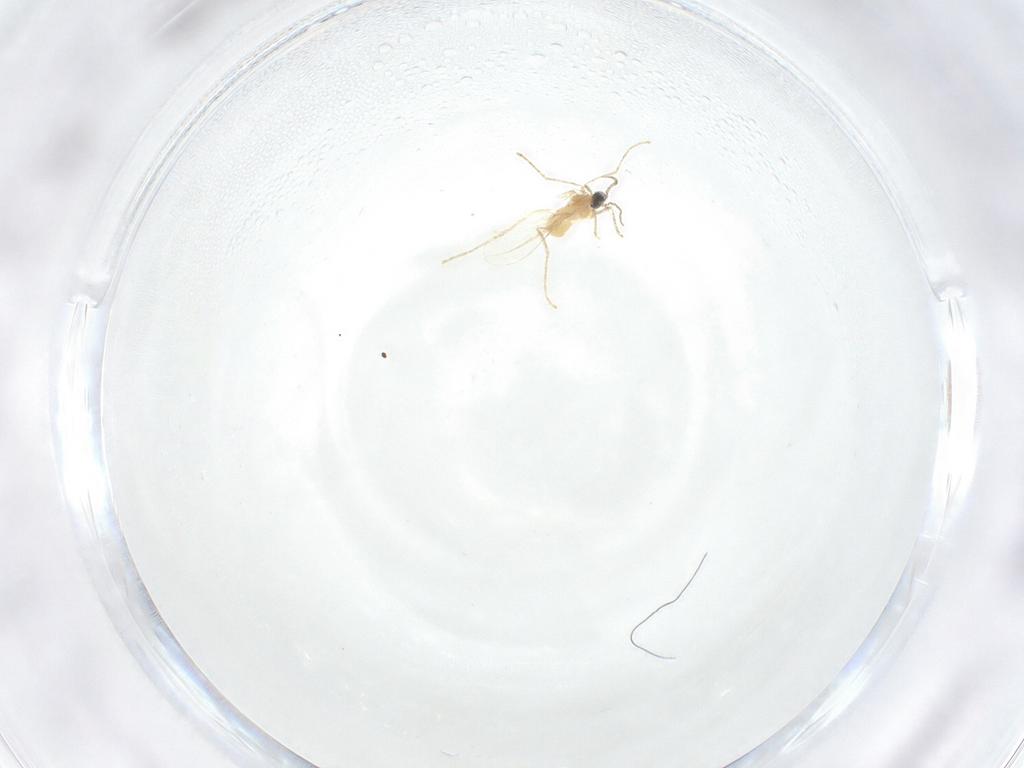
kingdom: Animalia
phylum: Arthropoda
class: Insecta
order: Diptera
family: Cecidomyiidae
